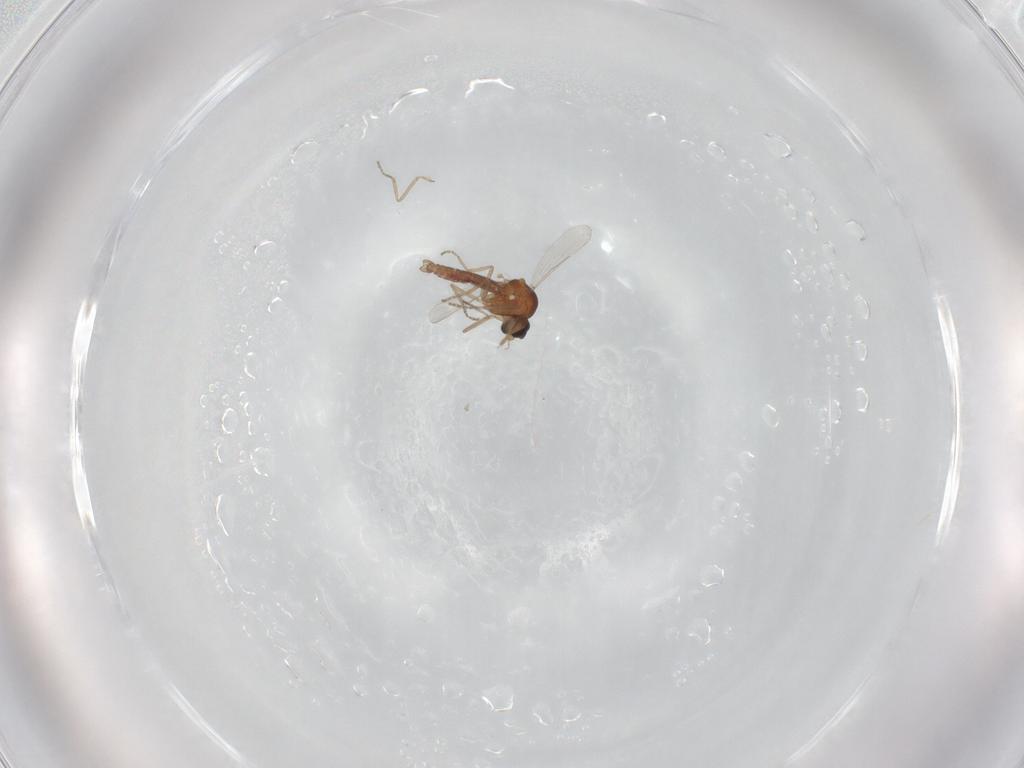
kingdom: Animalia
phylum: Arthropoda
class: Insecta
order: Diptera
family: Ceratopogonidae
